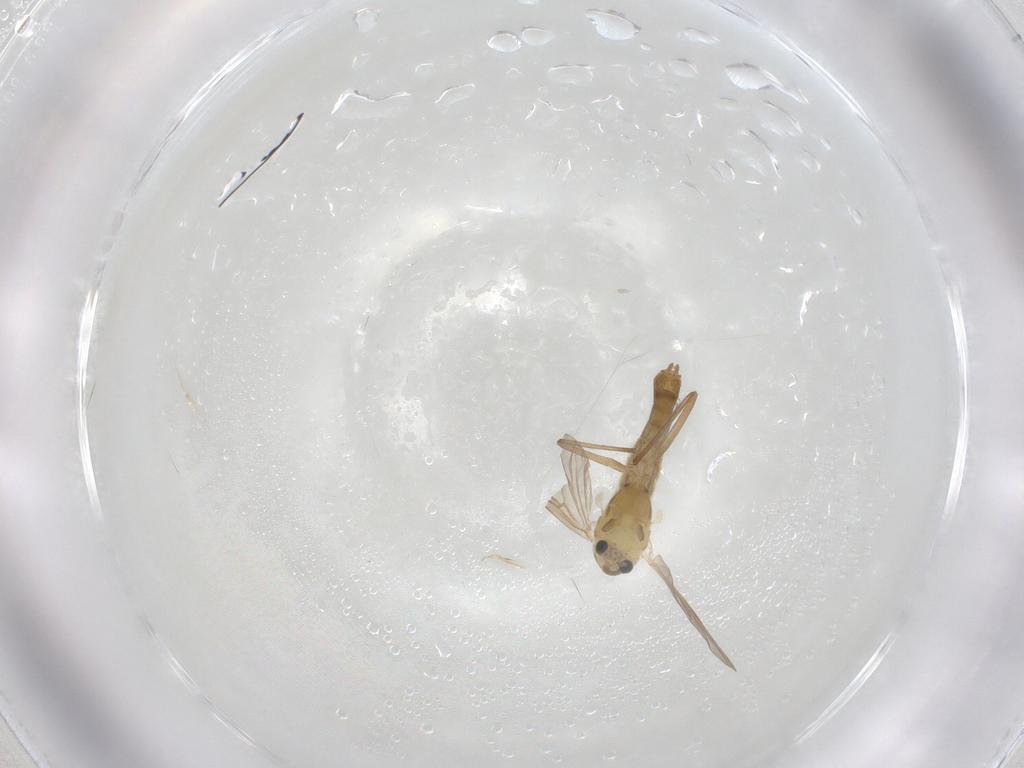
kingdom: Animalia
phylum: Arthropoda
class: Insecta
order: Diptera
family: Chironomidae
